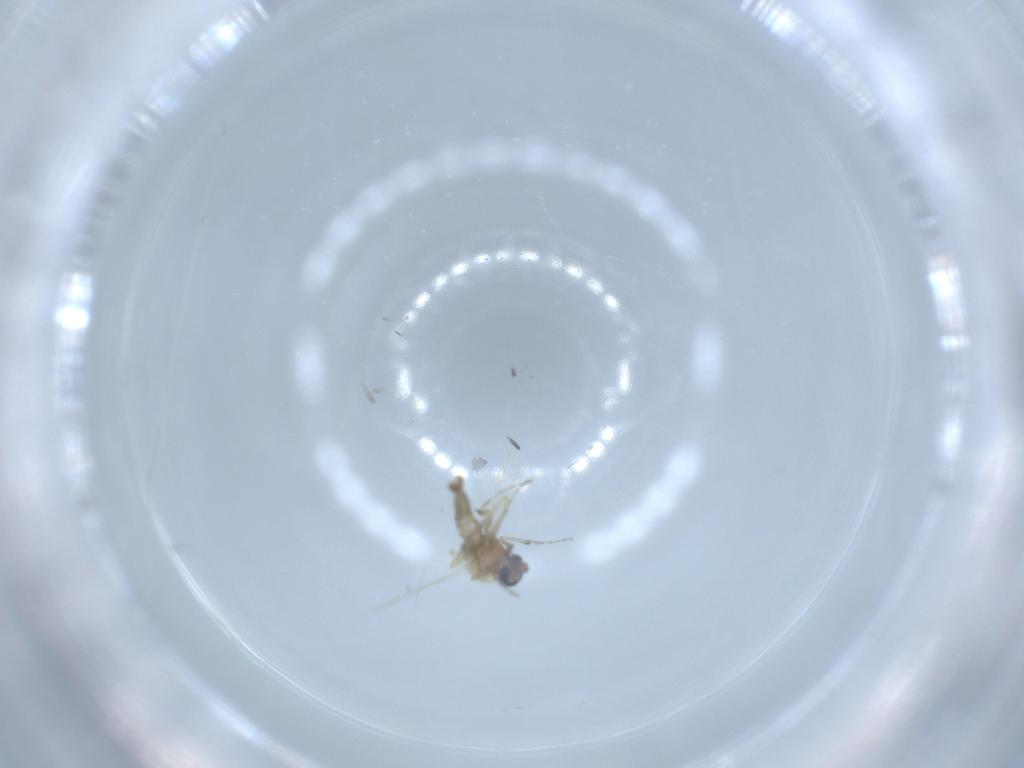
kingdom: Animalia
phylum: Arthropoda
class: Insecta
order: Diptera
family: Ceratopogonidae
